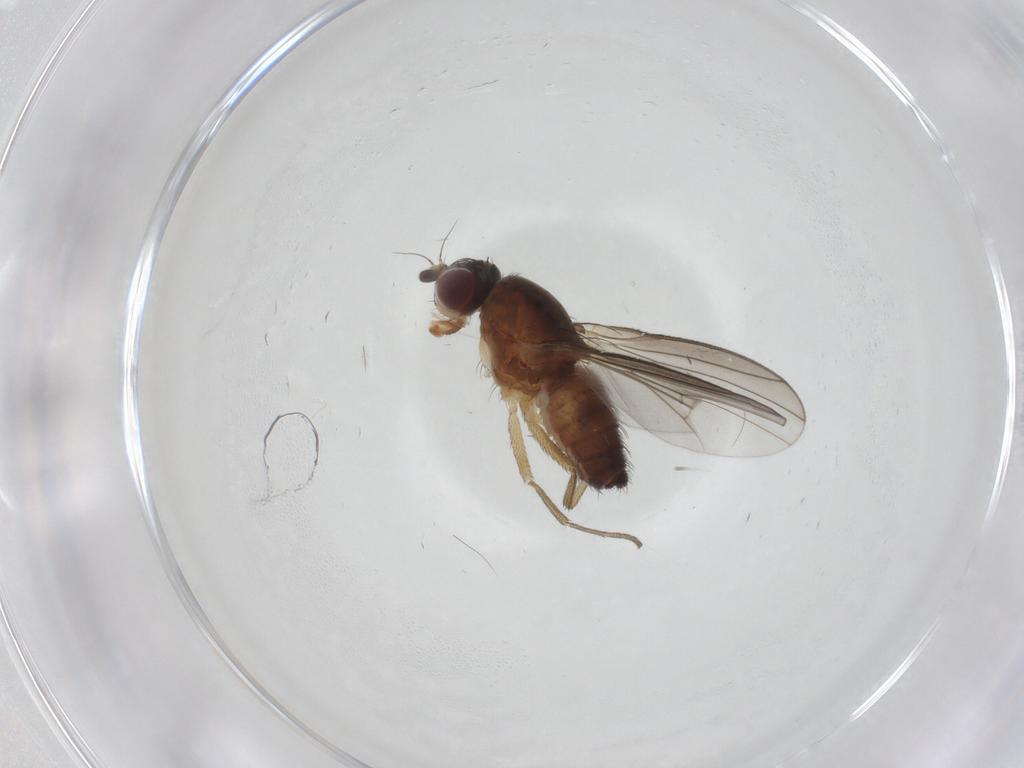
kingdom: Animalia
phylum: Arthropoda
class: Insecta
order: Diptera
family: Heleomyzidae
